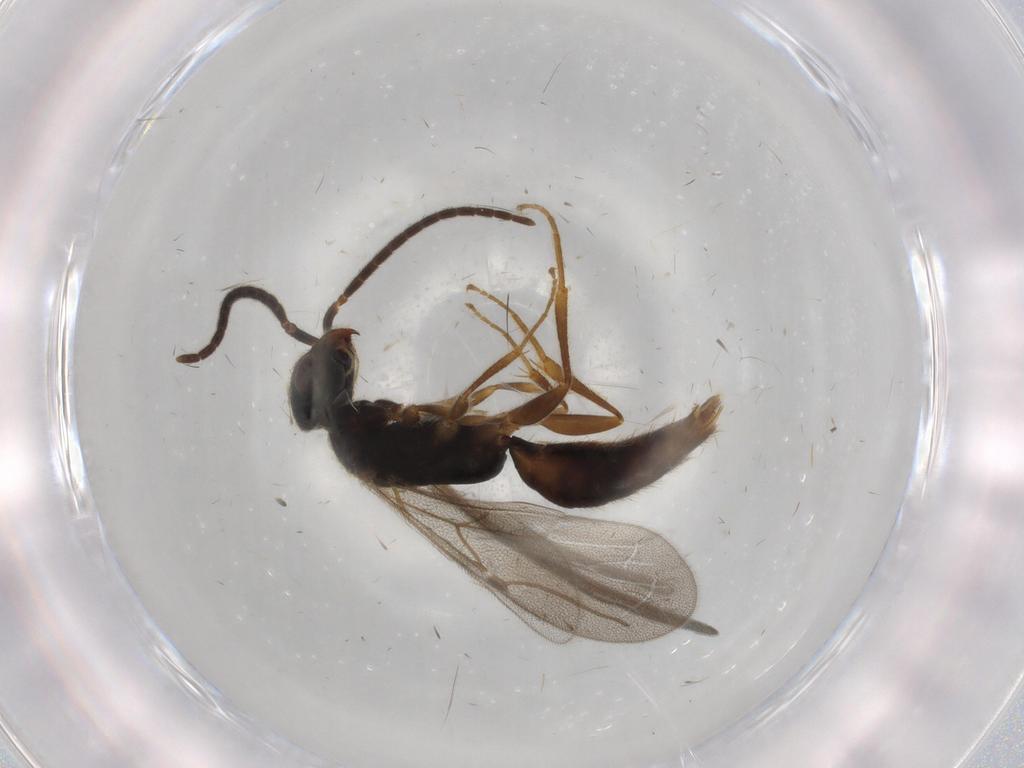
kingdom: Animalia
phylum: Arthropoda
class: Insecta
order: Hymenoptera
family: Bethylidae
